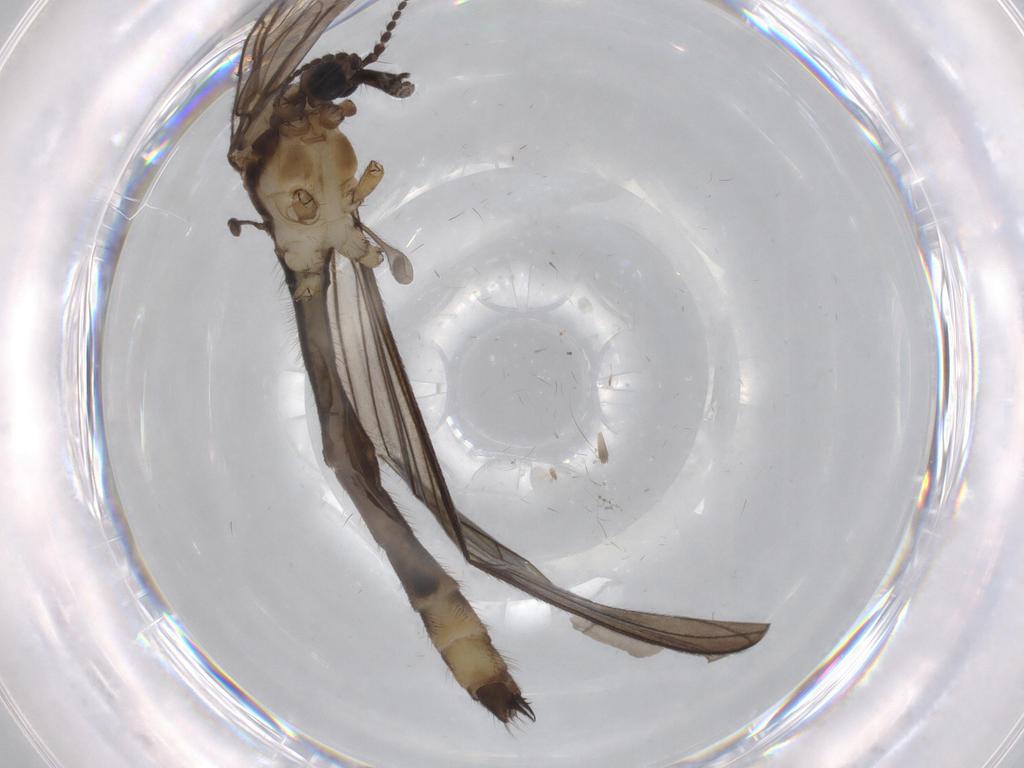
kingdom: Animalia
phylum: Arthropoda
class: Insecta
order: Diptera
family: Limoniidae
